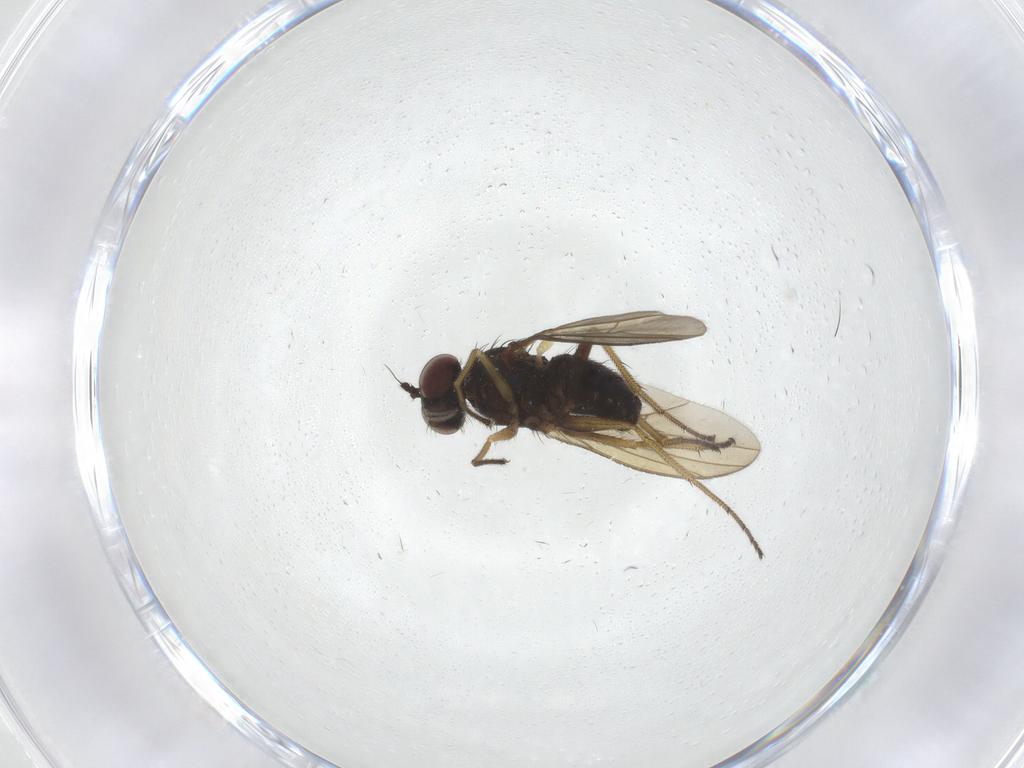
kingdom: Animalia
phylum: Arthropoda
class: Insecta
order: Diptera
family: Dolichopodidae
